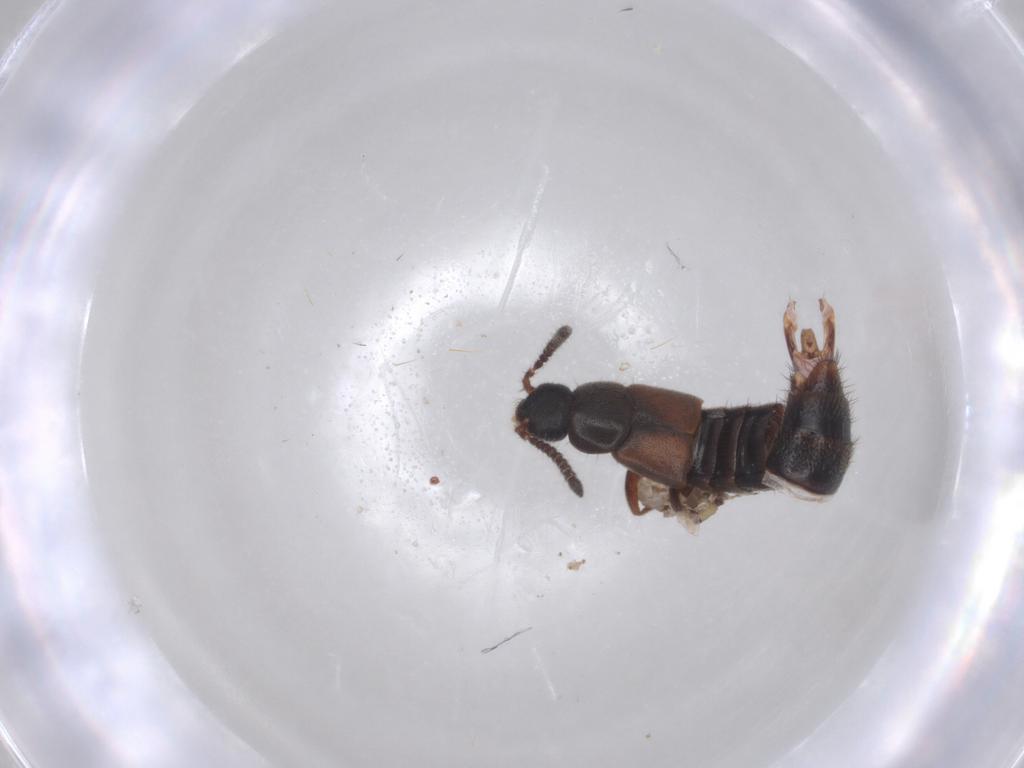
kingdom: Animalia
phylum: Arthropoda
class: Insecta
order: Coleoptera
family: Staphylinidae
